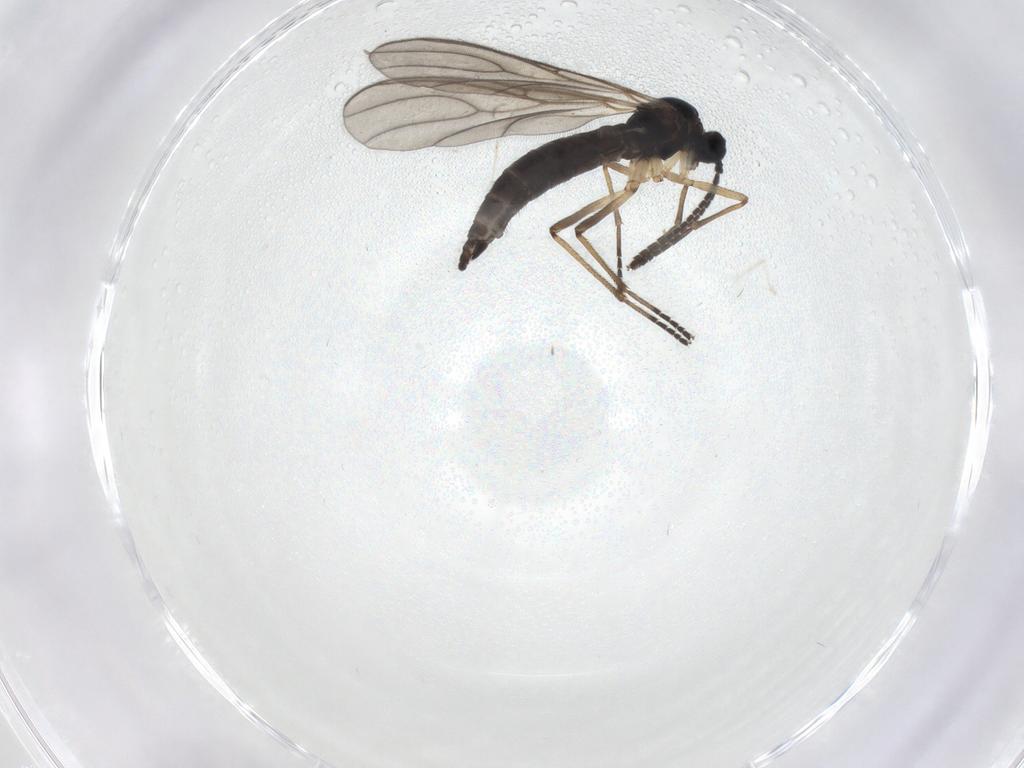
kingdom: Animalia
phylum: Arthropoda
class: Insecta
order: Diptera
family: Sciaridae
